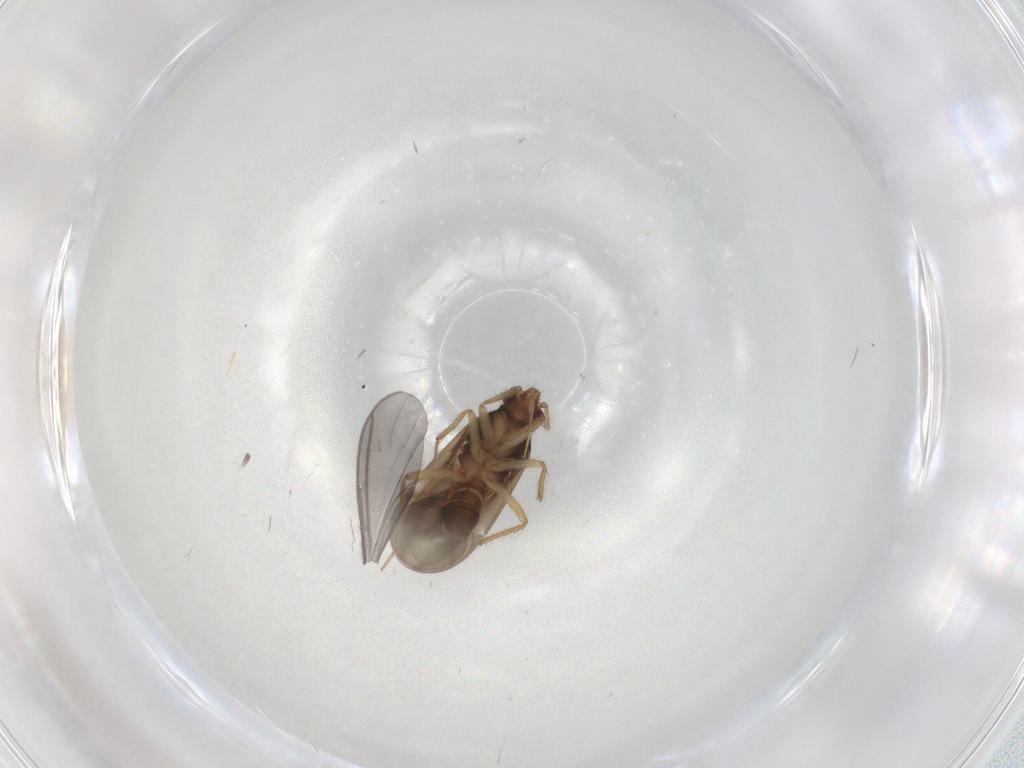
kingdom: Animalia
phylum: Arthropoda
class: Insecta
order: Hemiptera
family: Ceratocombidae
